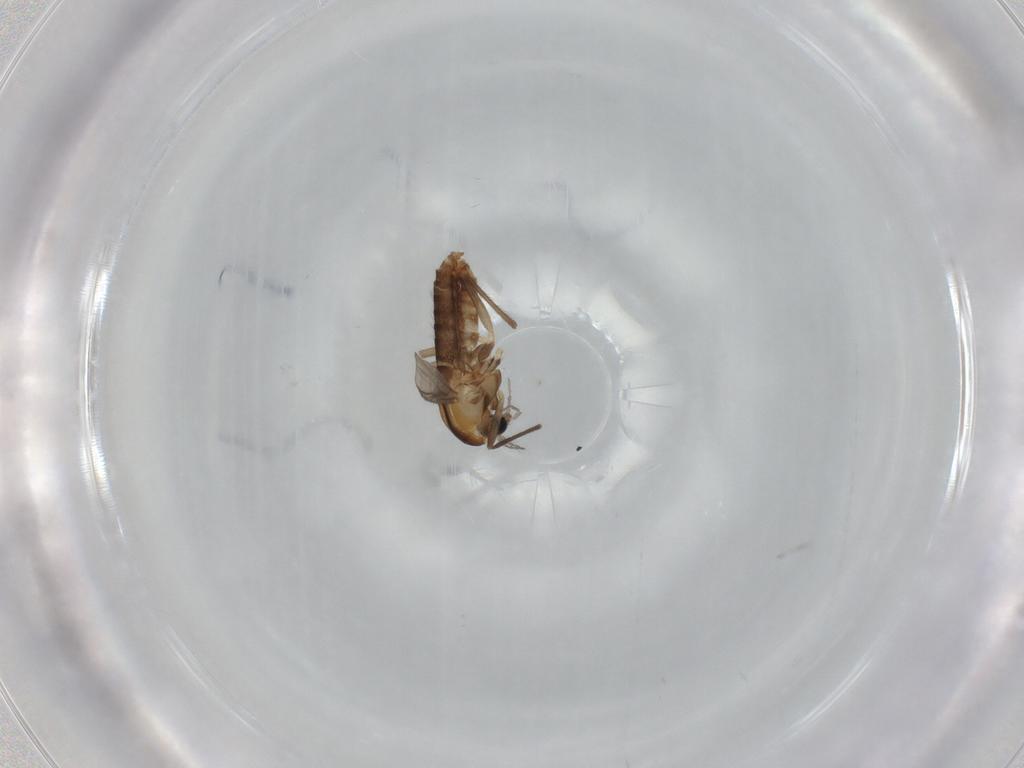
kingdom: Animalia
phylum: Arthropoda
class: Insecta
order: Diptera
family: Chironomidae
